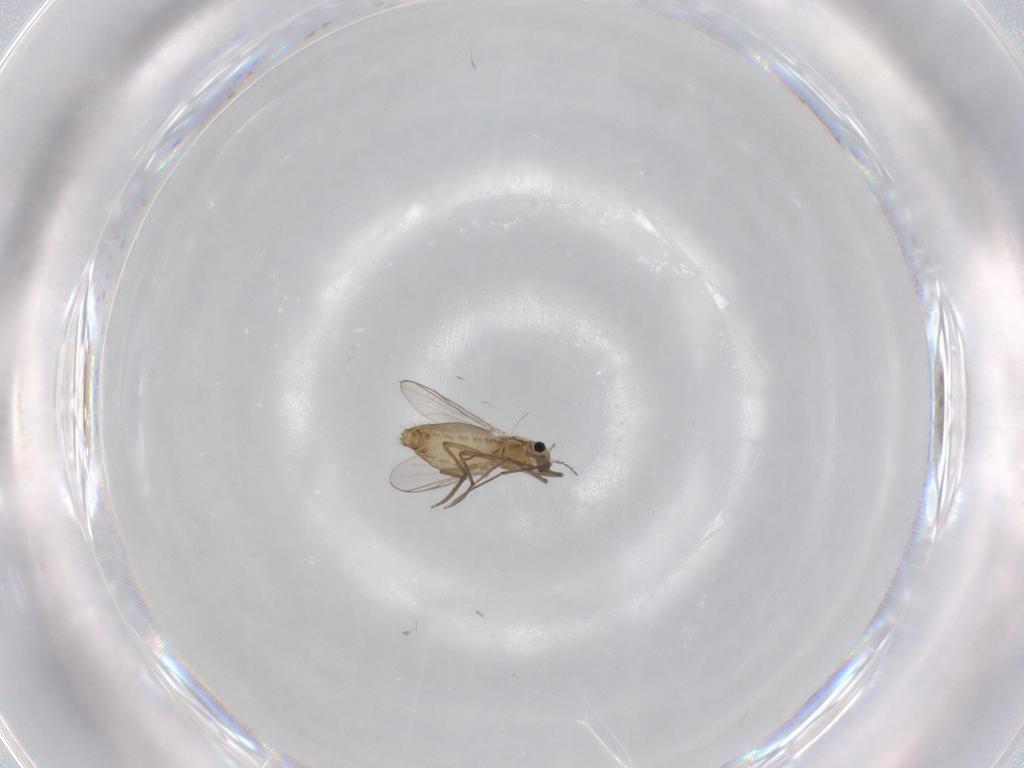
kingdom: Animalia
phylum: Arthropoda
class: Insecta
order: Diptera
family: Chironomidae
